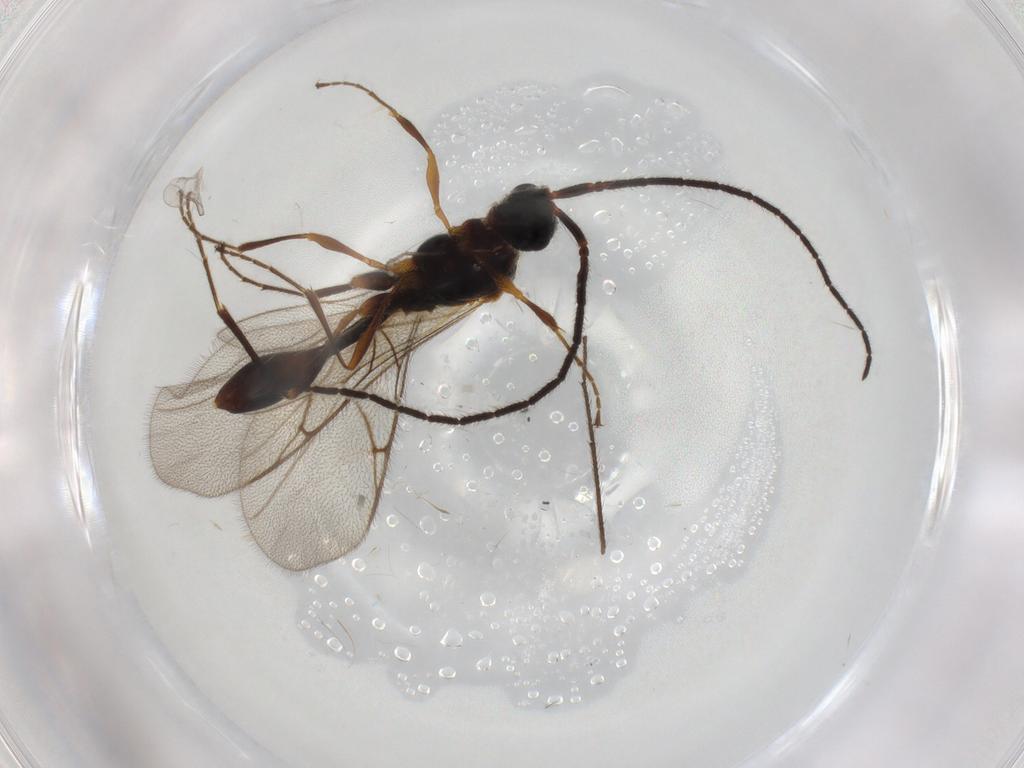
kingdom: Animalia
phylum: Arthropoda
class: Insecta
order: Hymenoptera
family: Diapriidae
